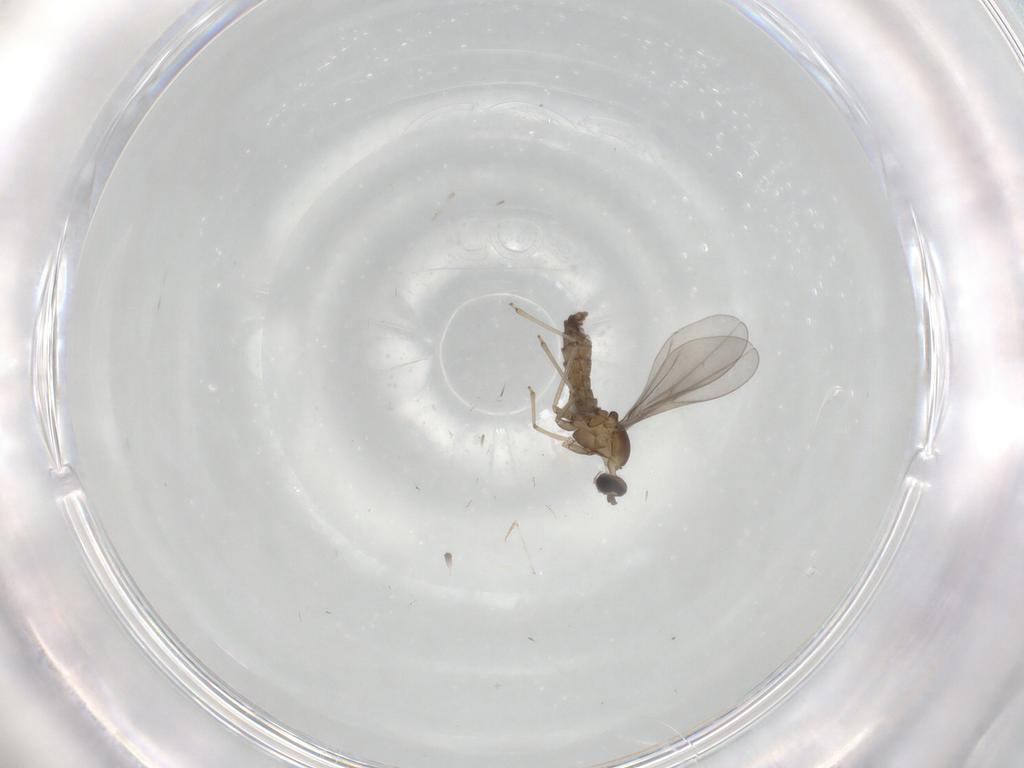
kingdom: Animalia
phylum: Arthropoda
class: Insecta
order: Diptera
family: Cecidomyiidae
